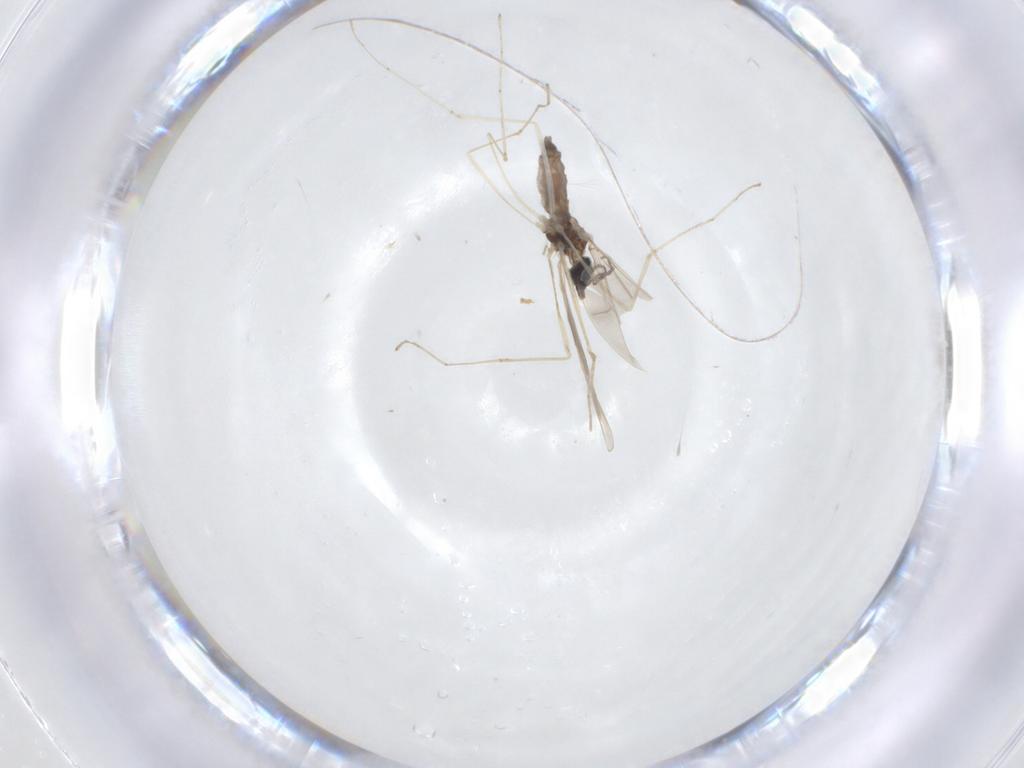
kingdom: Animalia
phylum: Arthropoda
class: Insecta
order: Diptera
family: Cecidomyiidae
